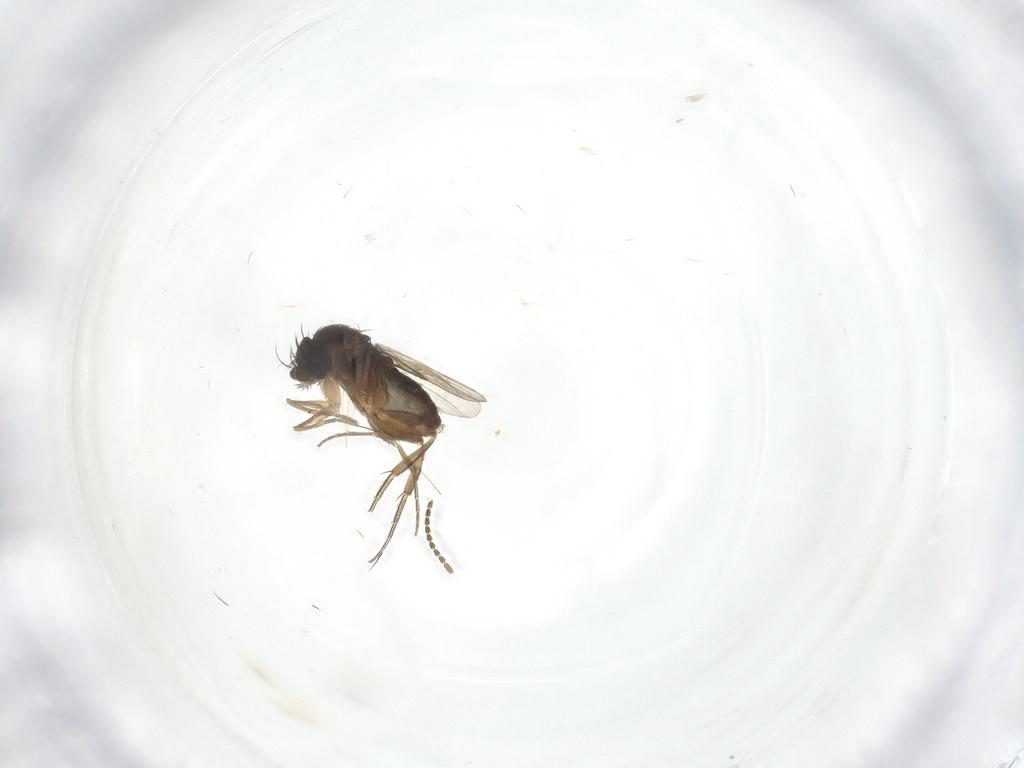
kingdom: Animalia
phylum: Arthropoda
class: Insecta
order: Diptera
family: Phoridae
